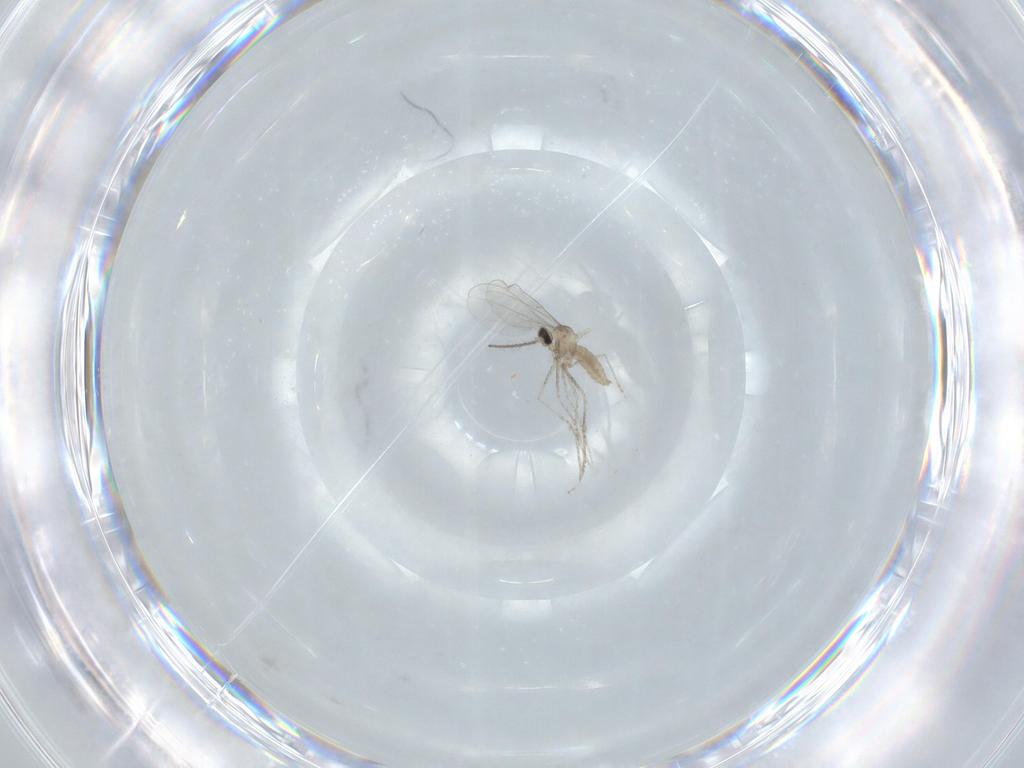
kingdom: Animalia
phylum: Arthropoda
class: Insecta
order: Diptera
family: Cecidomyiidae
